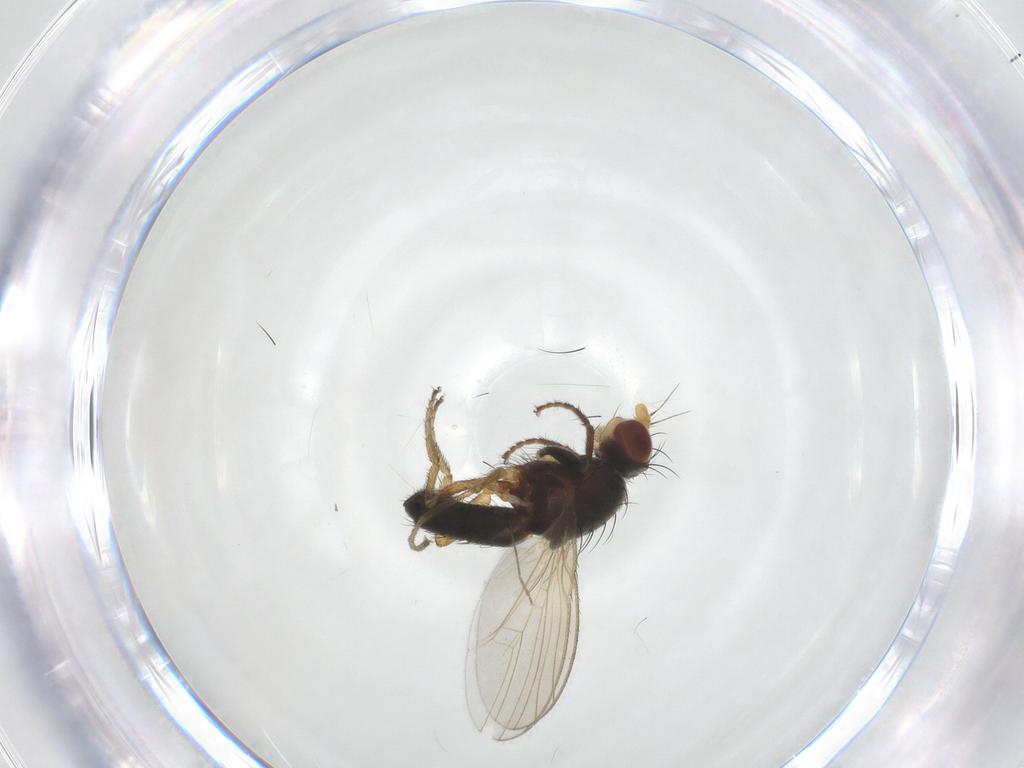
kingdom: Animalia
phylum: Arthropoda
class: Insecta
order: Diptera
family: Heleomyzidae
